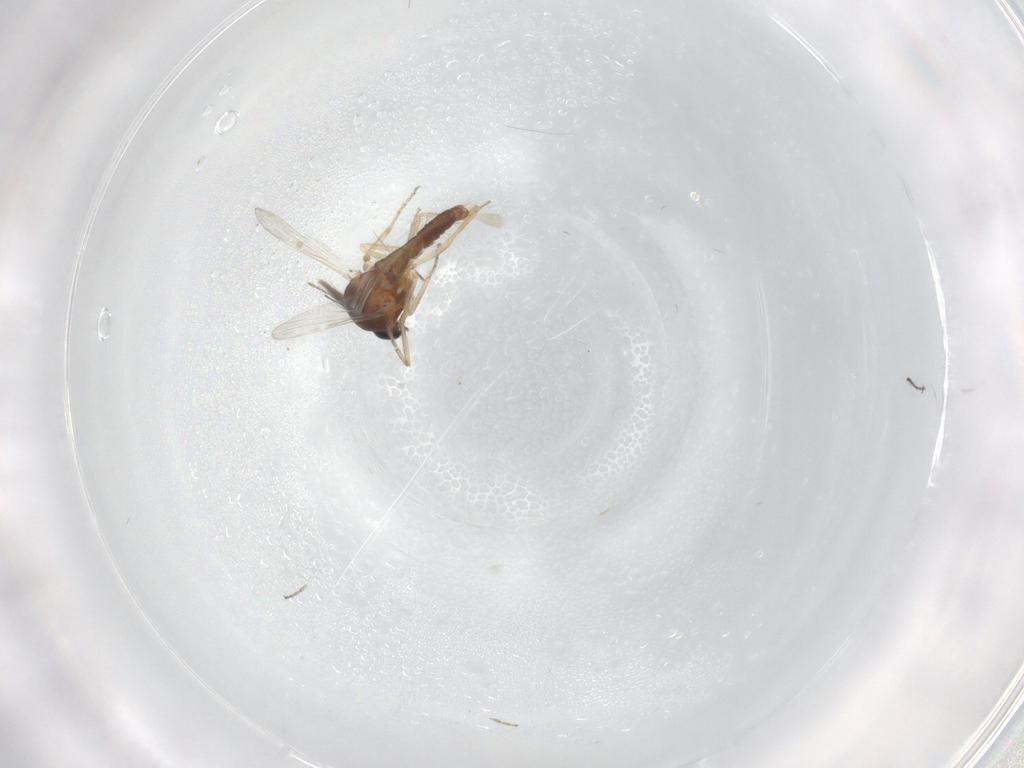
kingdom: Animalia
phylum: Arthropoda
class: Insecta
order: Diptera
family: Ceratopogonidae
